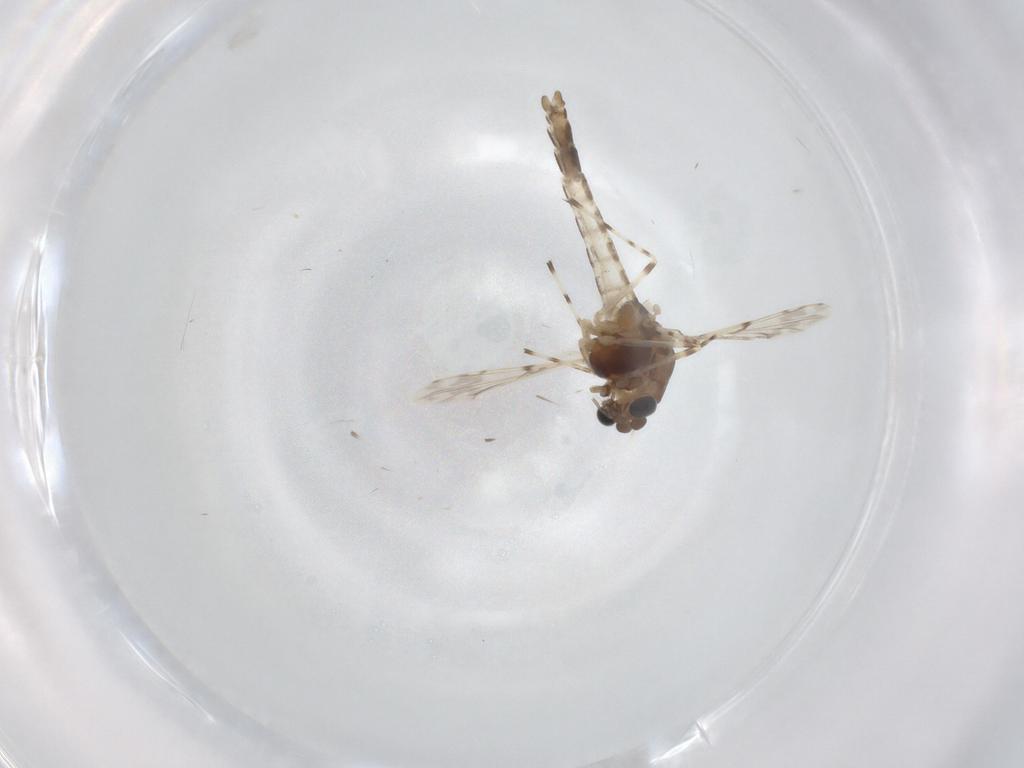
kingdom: Animalia
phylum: Arthropoda
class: Insecta
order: Diptera
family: Chironomidae
